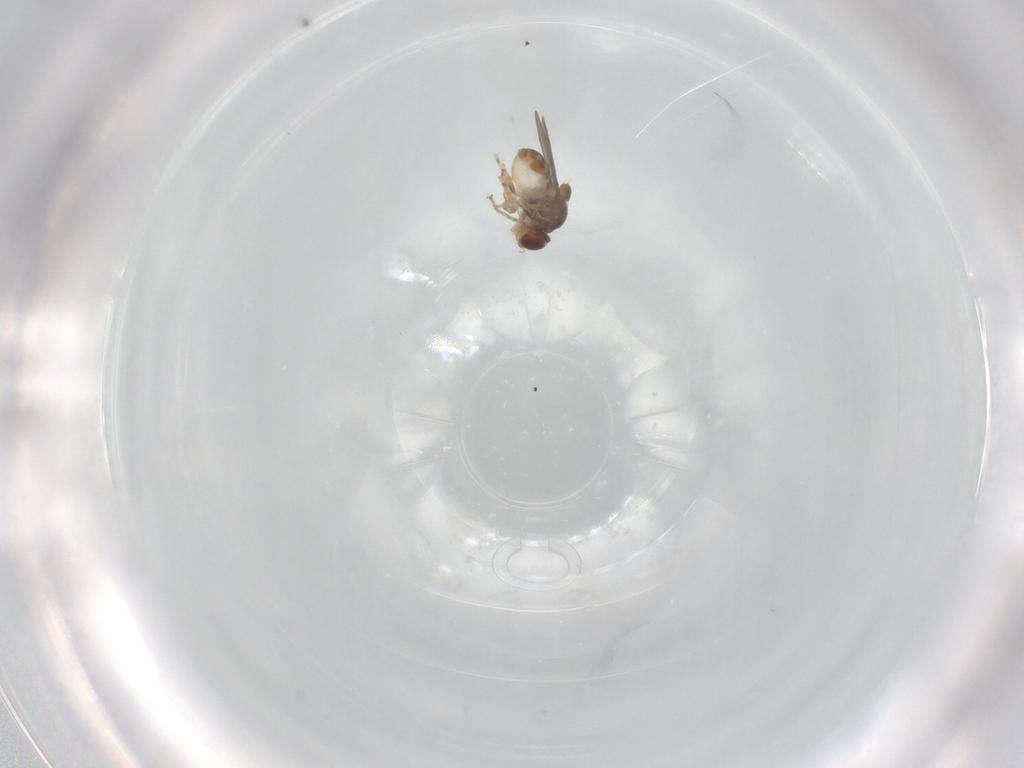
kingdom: Animalia
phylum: Arthropoda
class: Insecta
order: Diptera
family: Chloropidae
